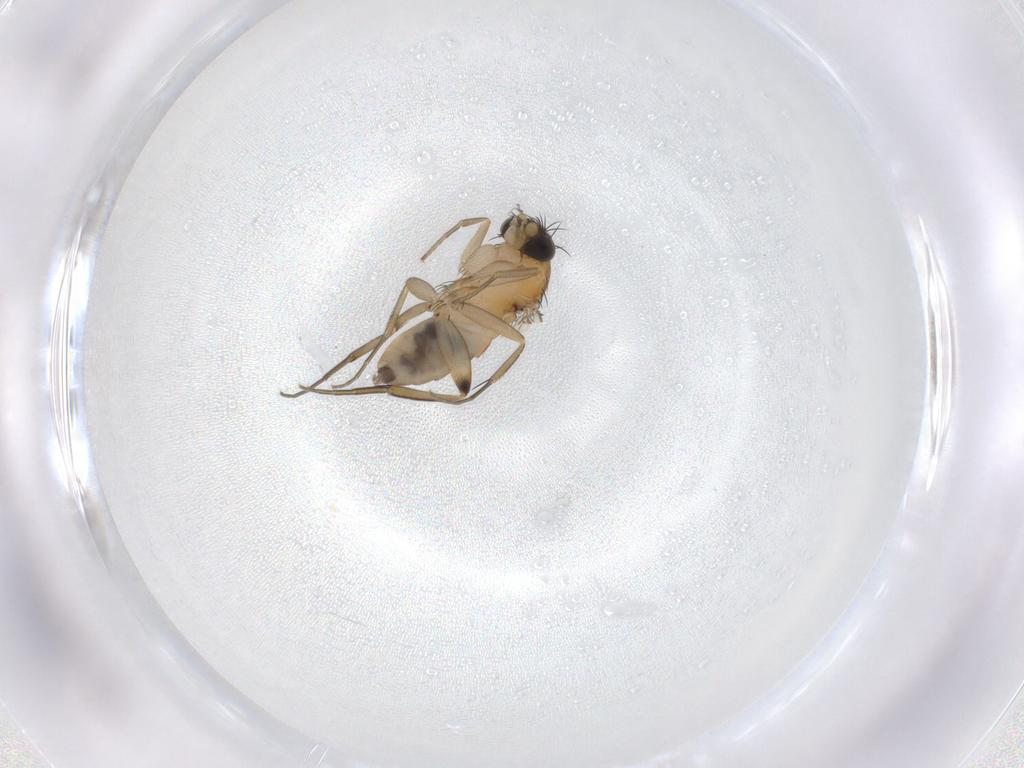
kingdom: Animalia
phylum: Arthropoda
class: Insecta
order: Diptera
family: Phoridae
